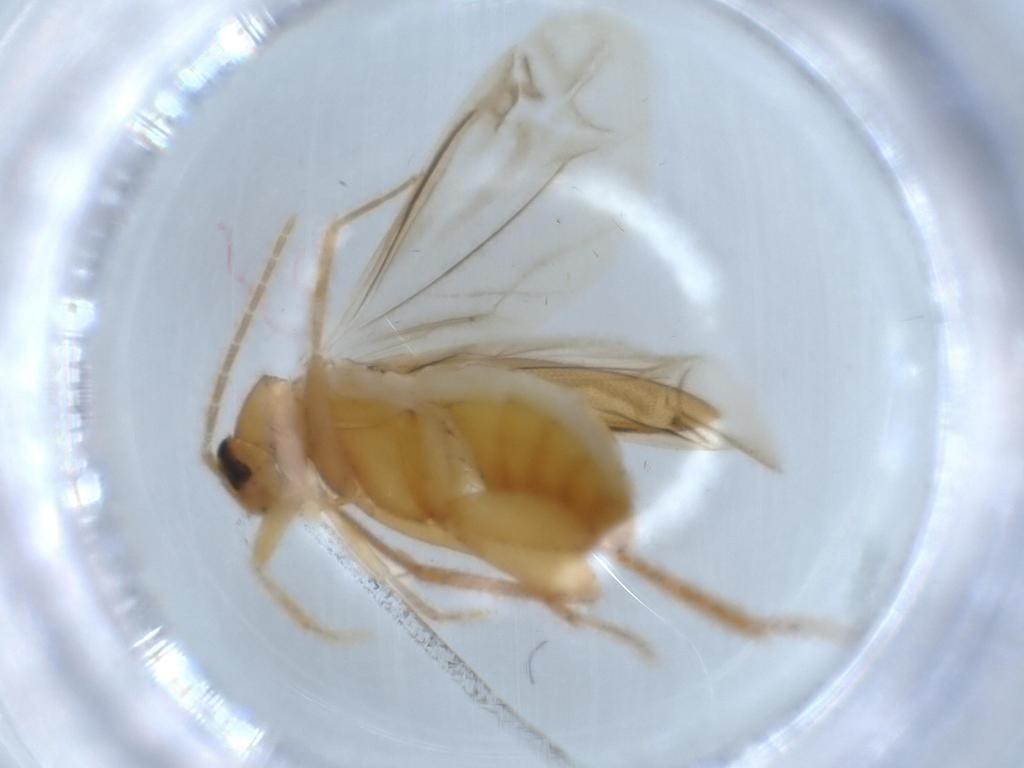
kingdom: Animalia
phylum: Arthropoda
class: Insecta
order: Coleoptera
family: Scraptiidae
